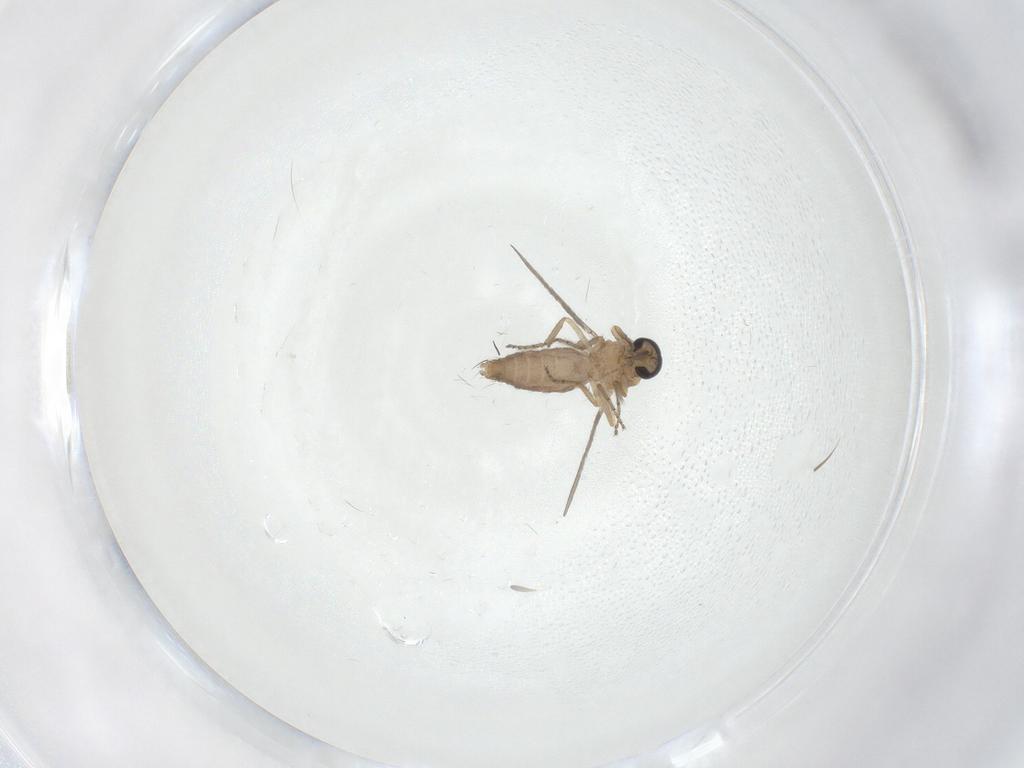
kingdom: Animalia
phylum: Arthropoda
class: Insecta
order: Diptera
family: Ceratopogonidae
